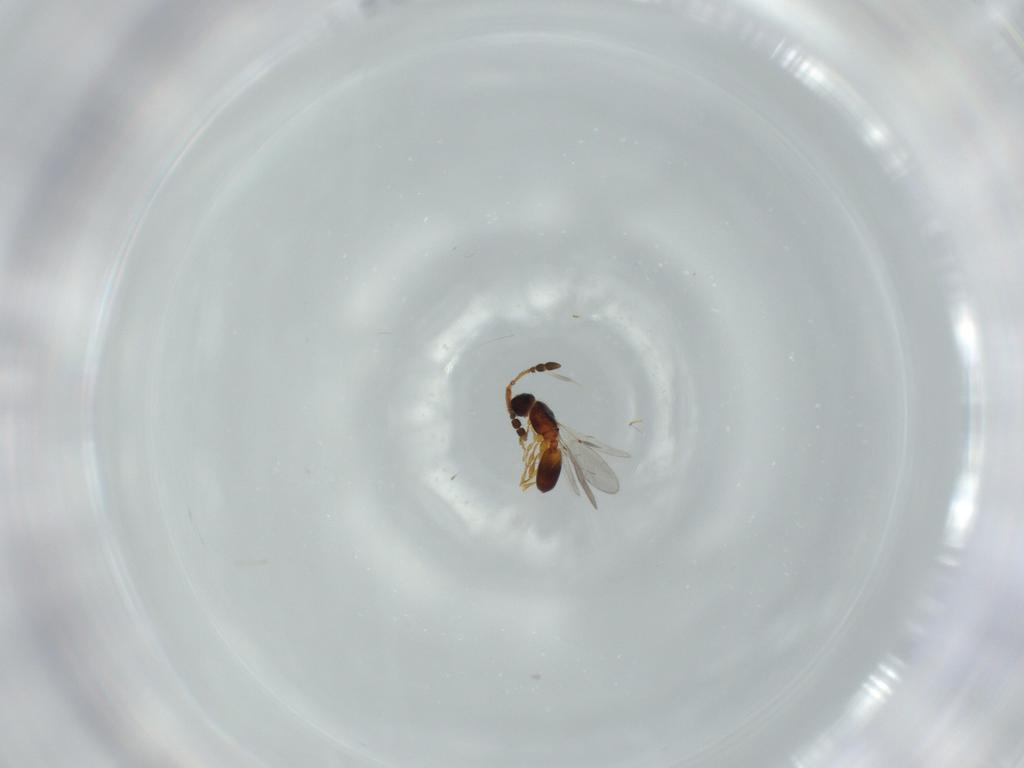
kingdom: Animalia
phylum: Arthropoda
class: Insecta
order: Hymenoptera
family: Diapriidae
